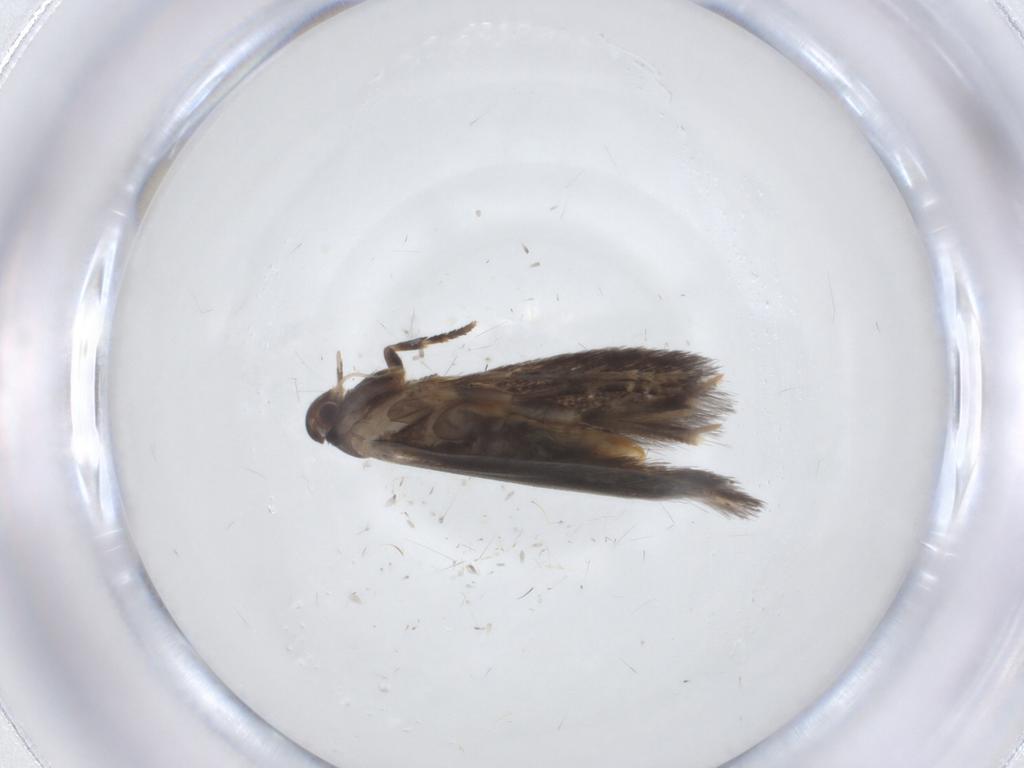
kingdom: Animalia
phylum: Arthropoda
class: Insecta
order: Lepidoptera
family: Elachistidae
